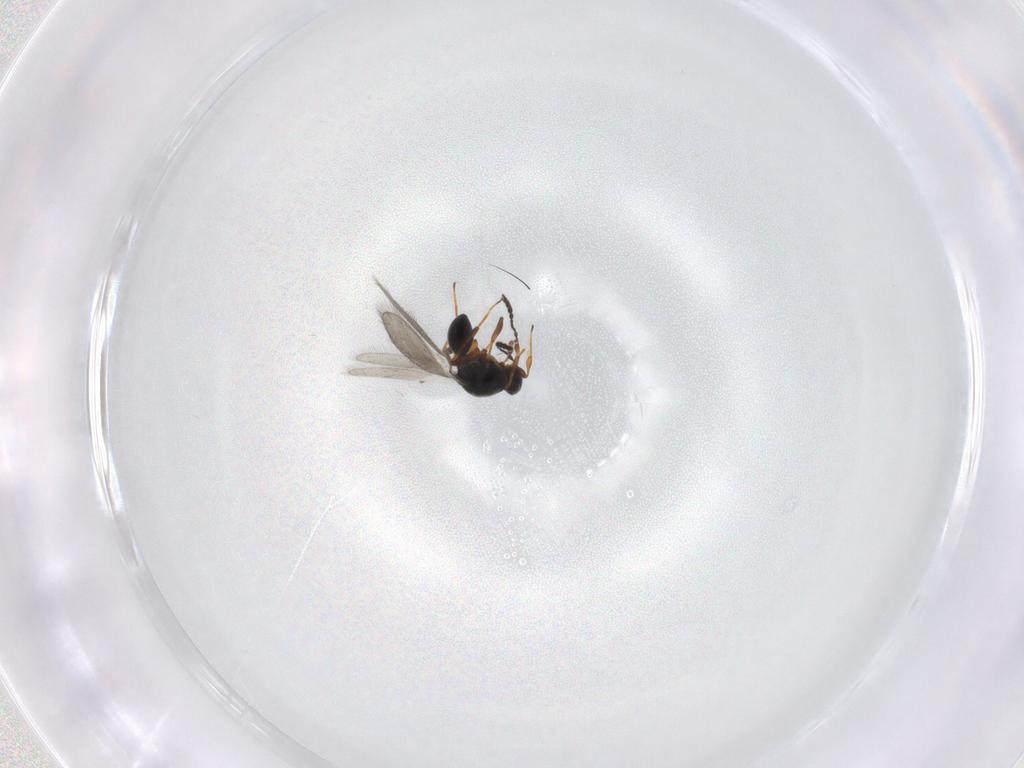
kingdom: Animalia
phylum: Arthropoda
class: Insecta
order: Hymenoptera
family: Platygastridae
